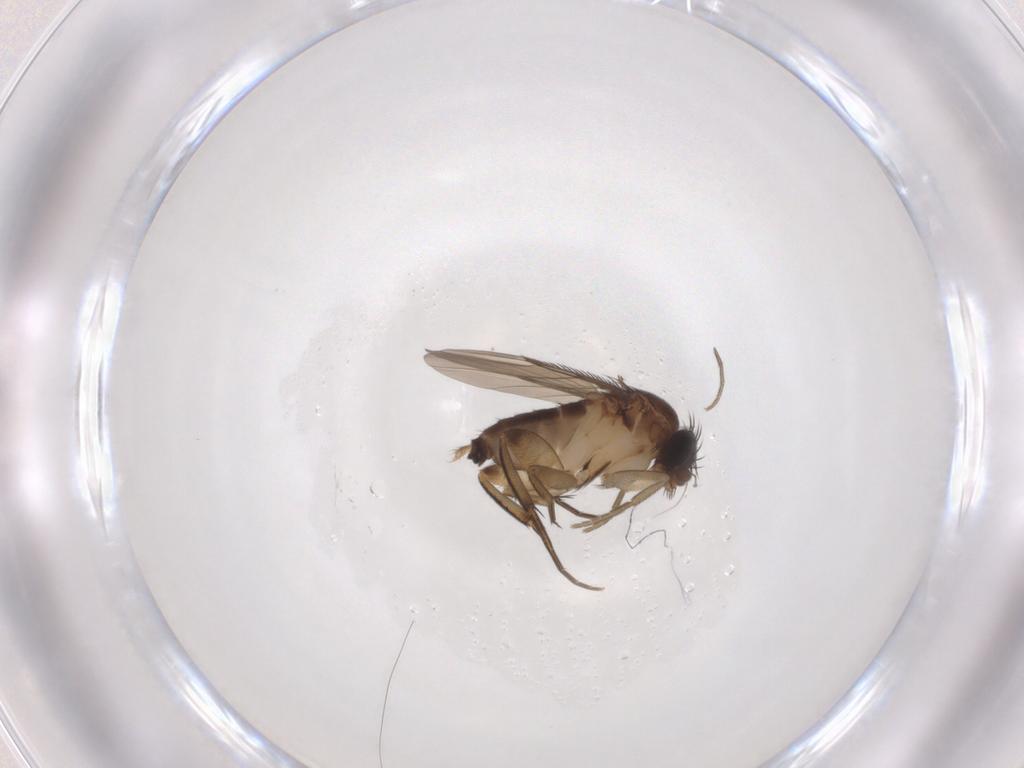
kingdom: Animalia
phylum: Arthropoda
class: Insecta
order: Diptera
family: Phoridae
